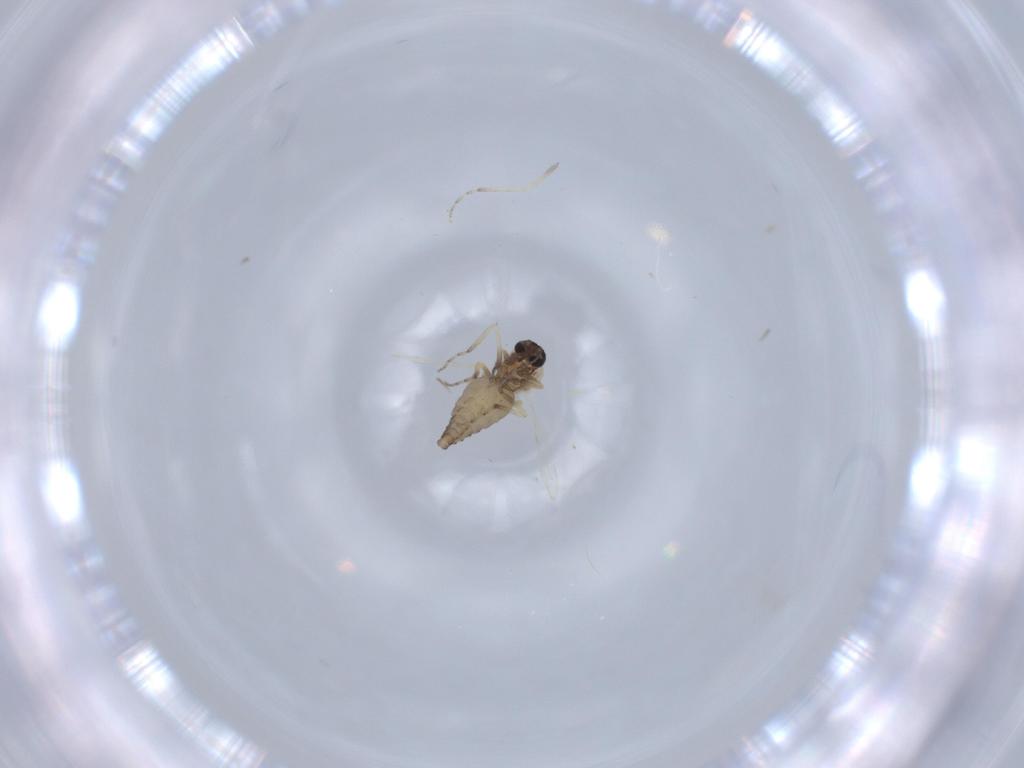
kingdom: Animalia
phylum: Arthropoda
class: Insecta
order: Diptera
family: Ceratopogonidae
